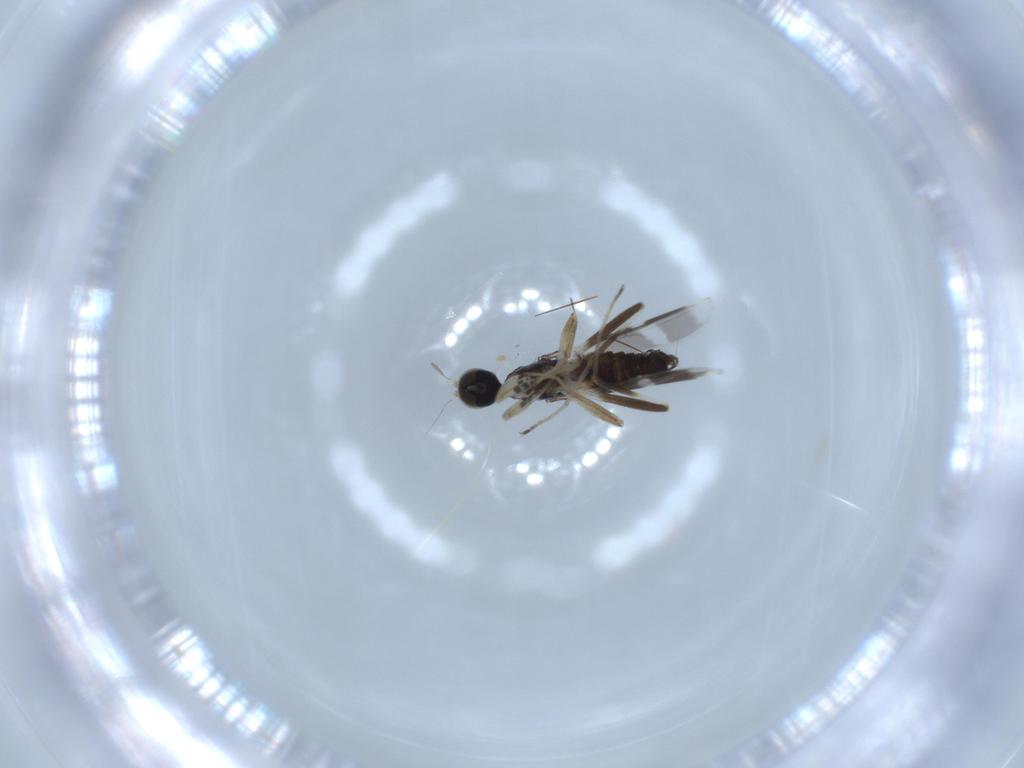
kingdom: Animalia
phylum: Arthropoda
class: Insecta
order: Diptera
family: Hybotidae
